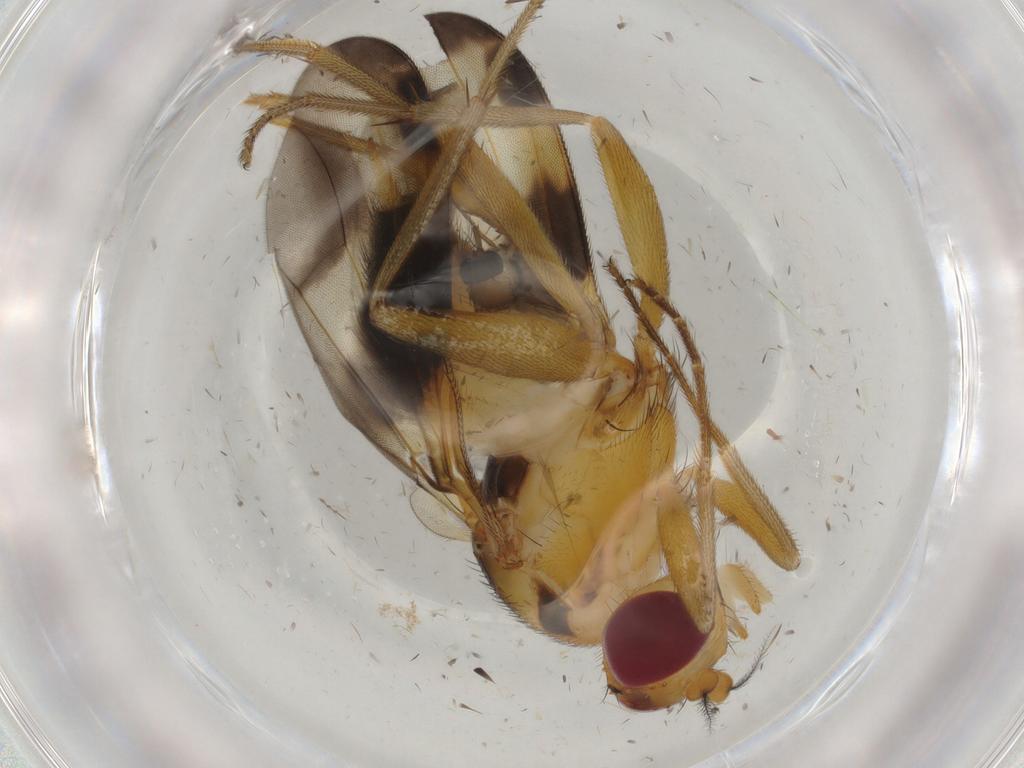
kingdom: Animalia
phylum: Arthropoda
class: Insecta
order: Diptera
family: Clusiidae
